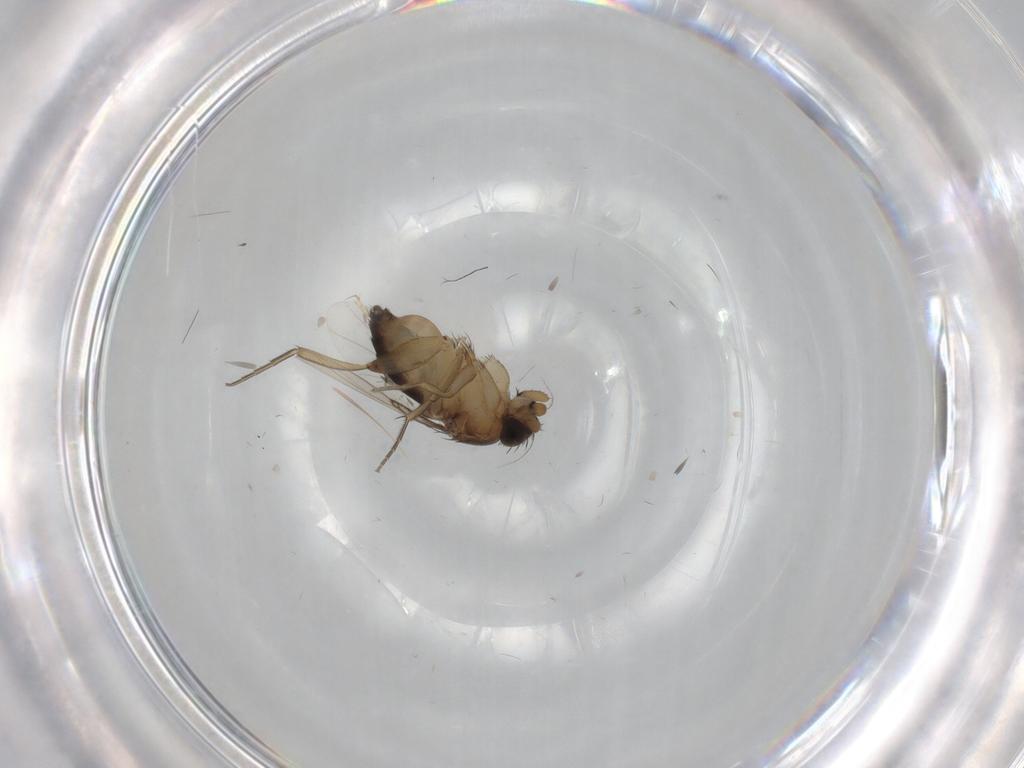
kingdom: Animalia
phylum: Arthropoda
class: Insecta
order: Diptera
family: Phoridae
